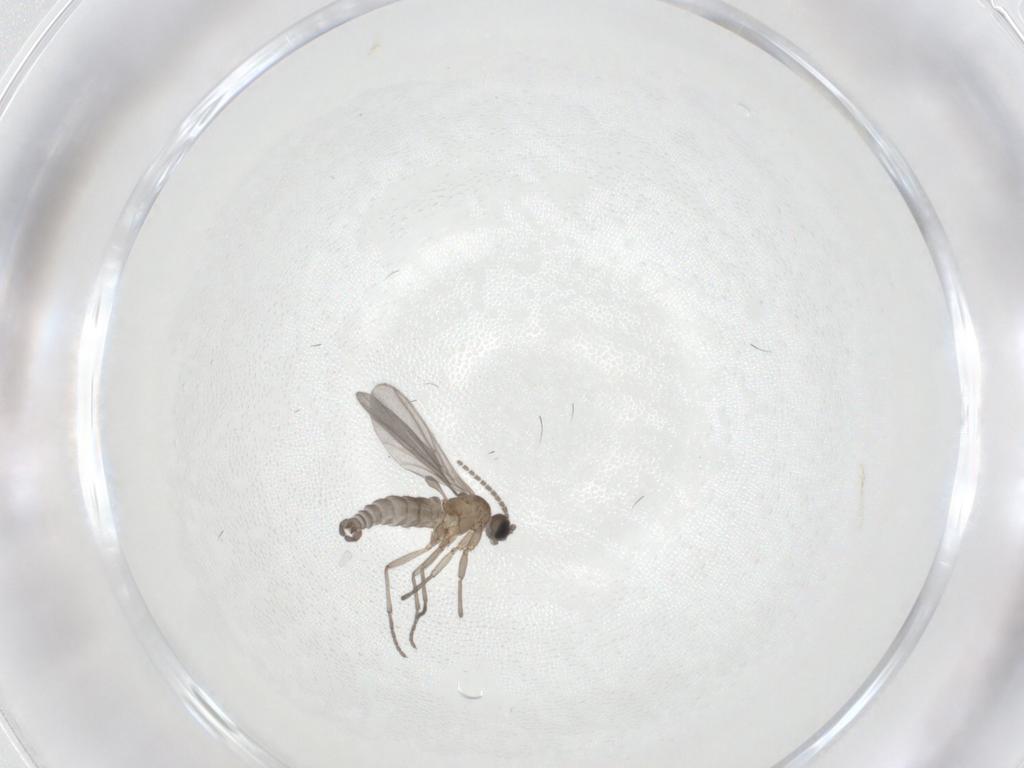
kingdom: Animalia
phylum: Arthropoda
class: Insecta
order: Diptera
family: Sciaridae
